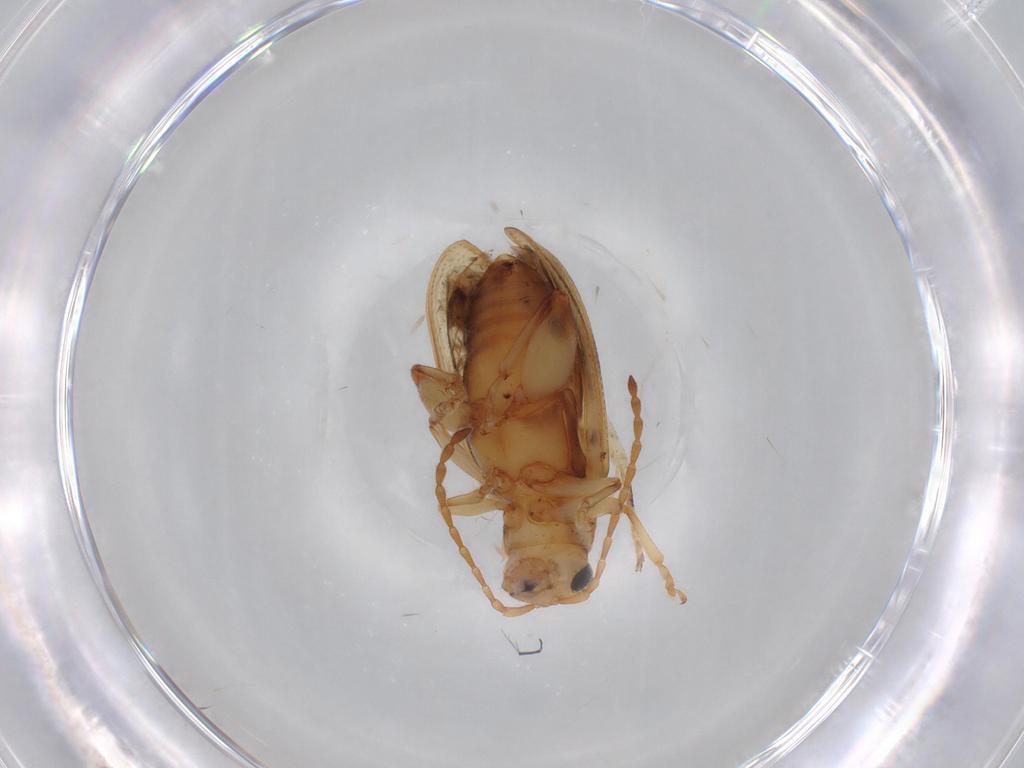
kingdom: Animalia
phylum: Arthropoda
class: Insecta
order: Coleoptera
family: Chrysomelidae
